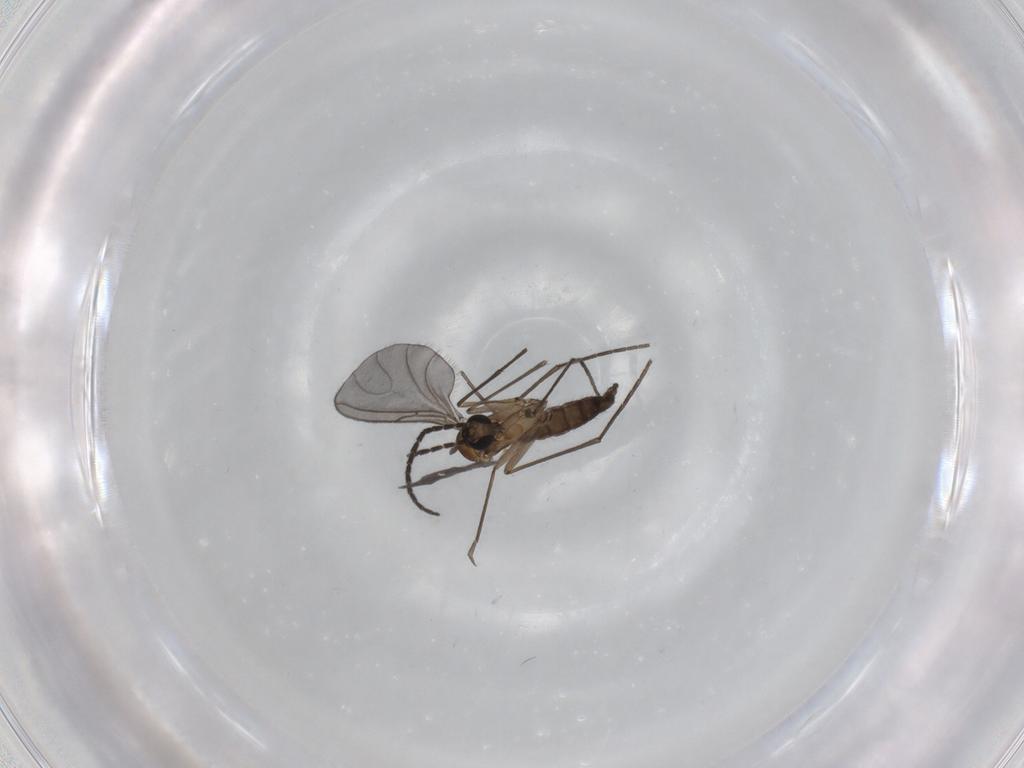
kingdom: Animalia
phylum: Arthropoda
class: Insecta
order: Diptera
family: Sciaridae
